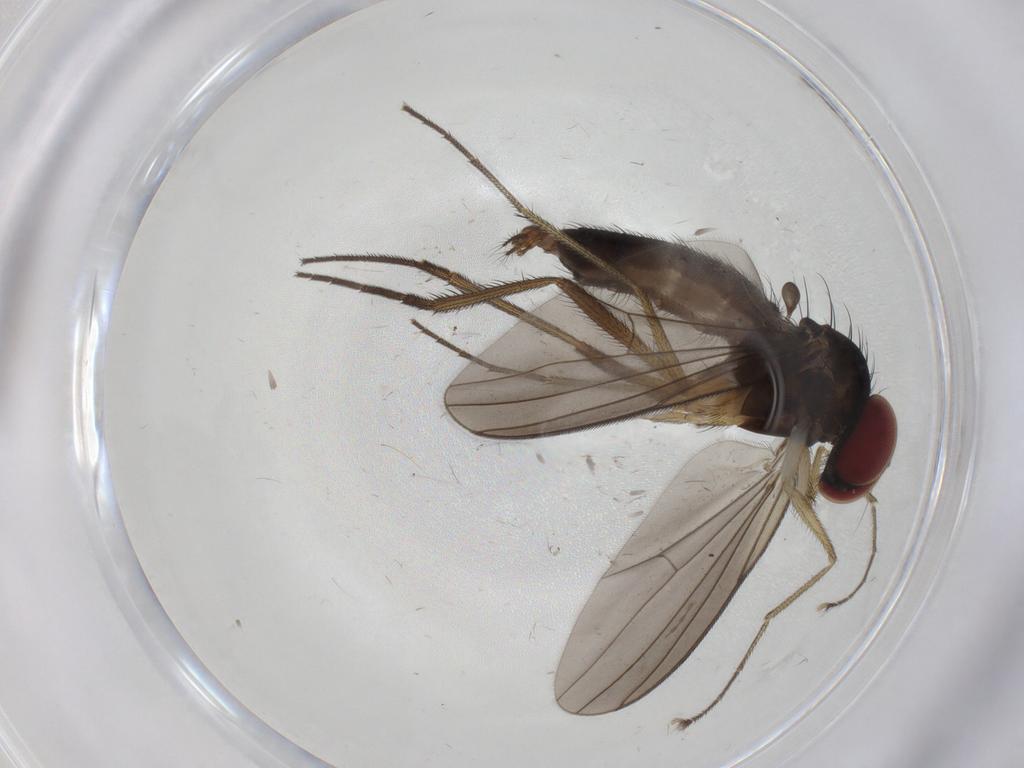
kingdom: Animalia
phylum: Arthropoda
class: Insecta
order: Diptera
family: Dolichopodidae
